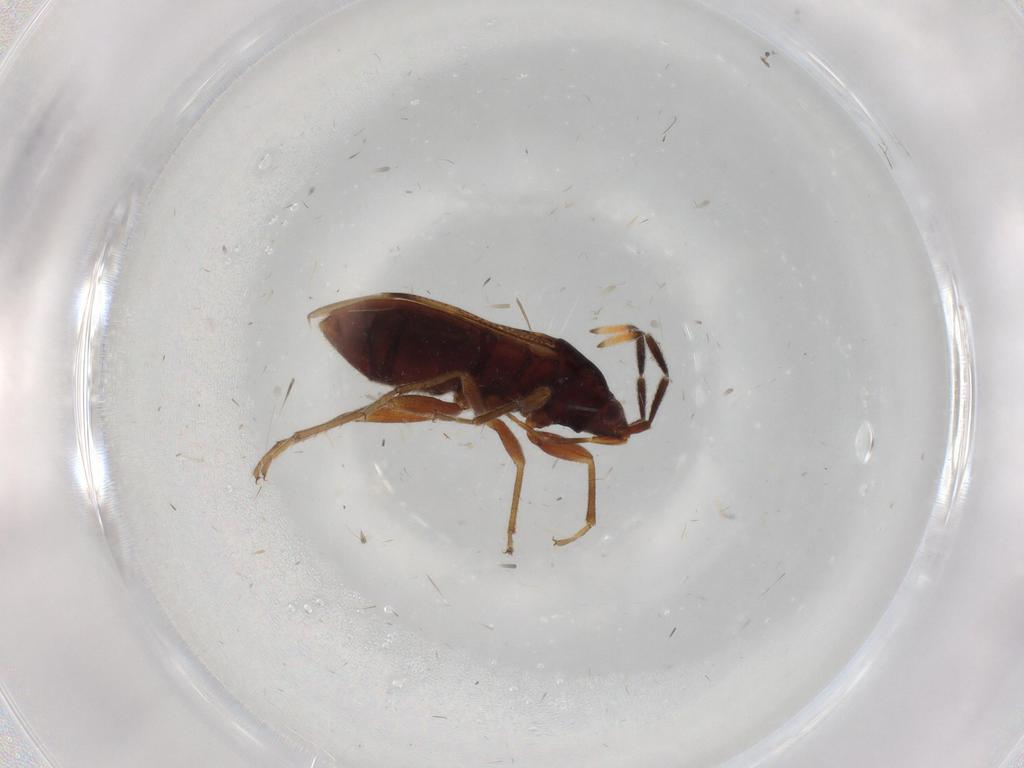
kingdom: Animalia
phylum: Arthropoda
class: Insecta
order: Hemiptera
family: Rhyparochromidae
